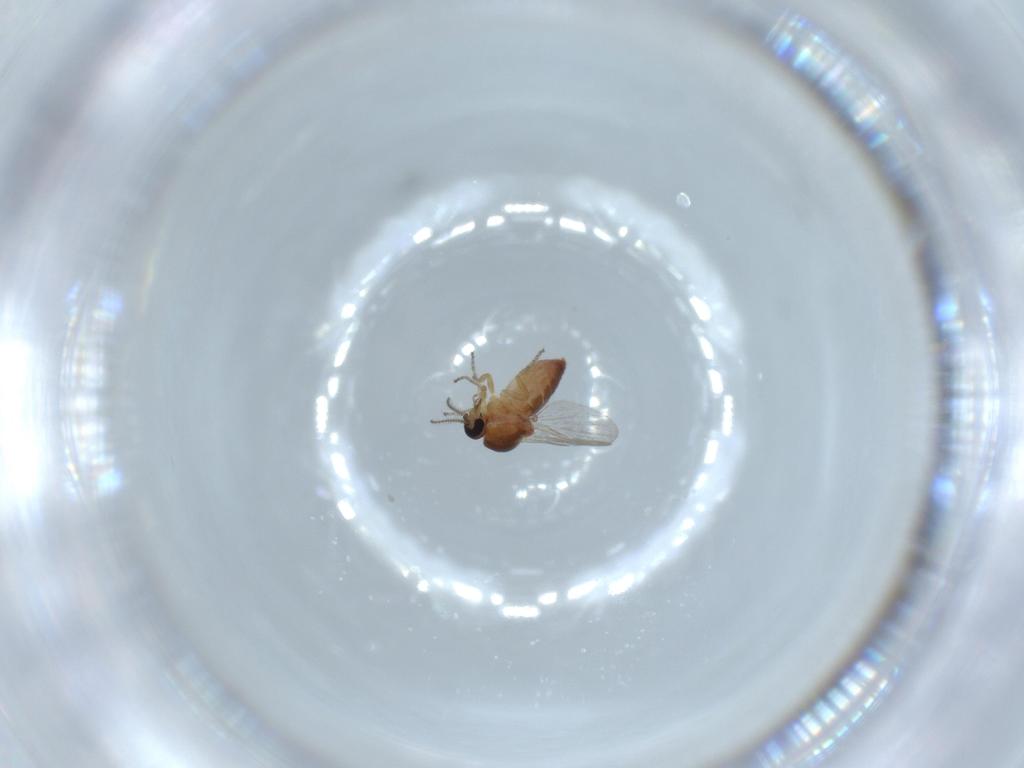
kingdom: Animalia
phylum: Arthropoda
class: Insecta
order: Diptera
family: Ceratopogonidae
